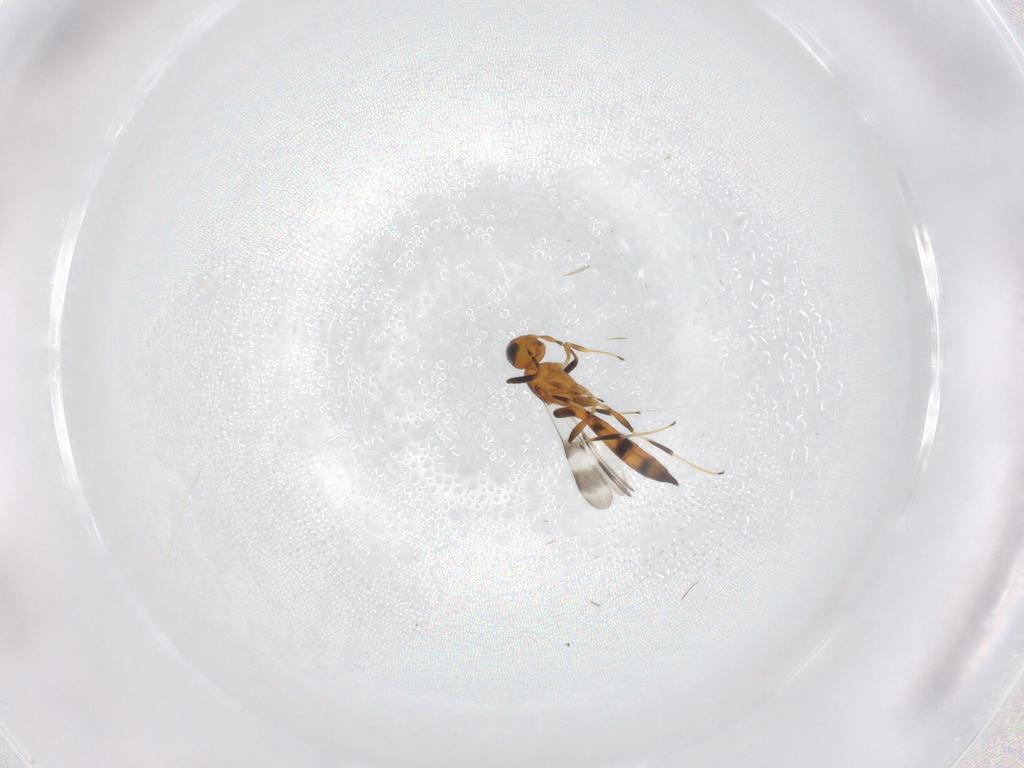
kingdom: Animalia
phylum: Arthropoda
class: Insecta
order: Hymenoptera
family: Scelionidae
